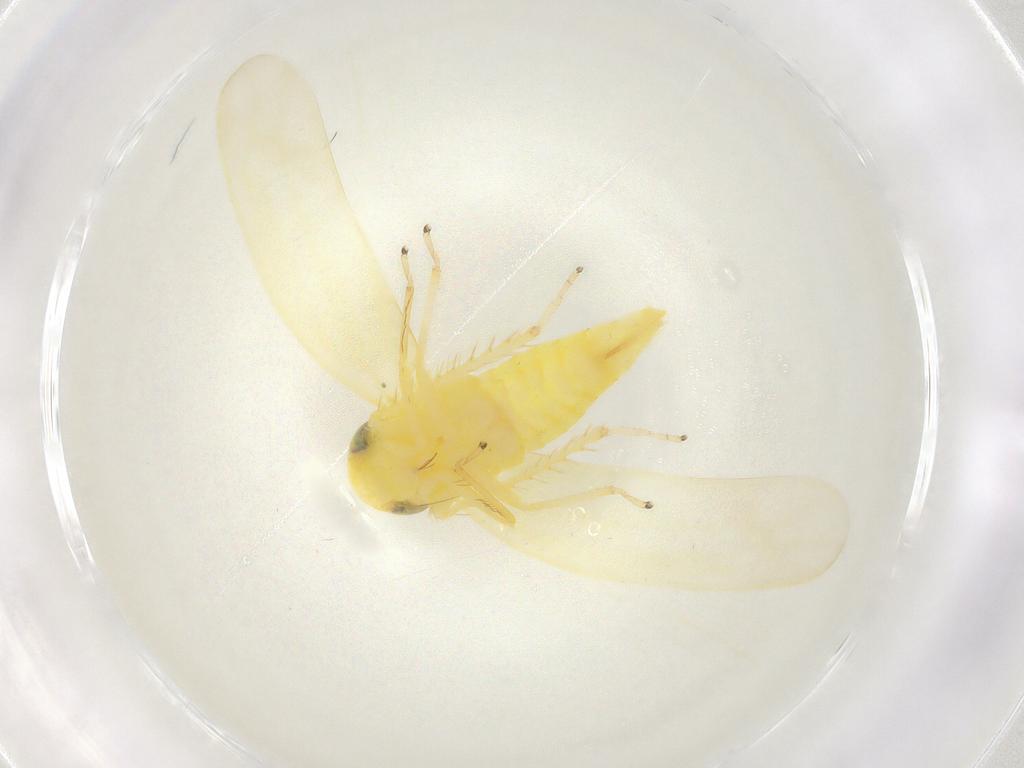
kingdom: Animalia
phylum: Arthropoda
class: Insecta
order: Hemiptera
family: Cicadellidae
